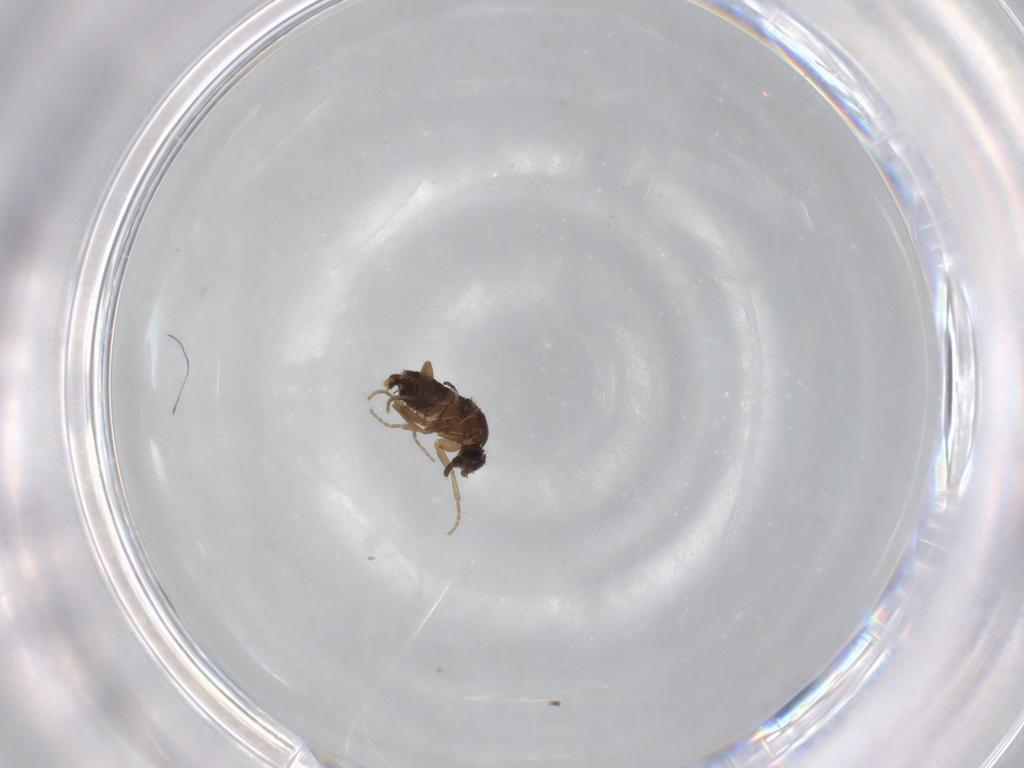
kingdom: Animalia
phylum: Arthropoda
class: Insecta
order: Diptera
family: Phoridae
